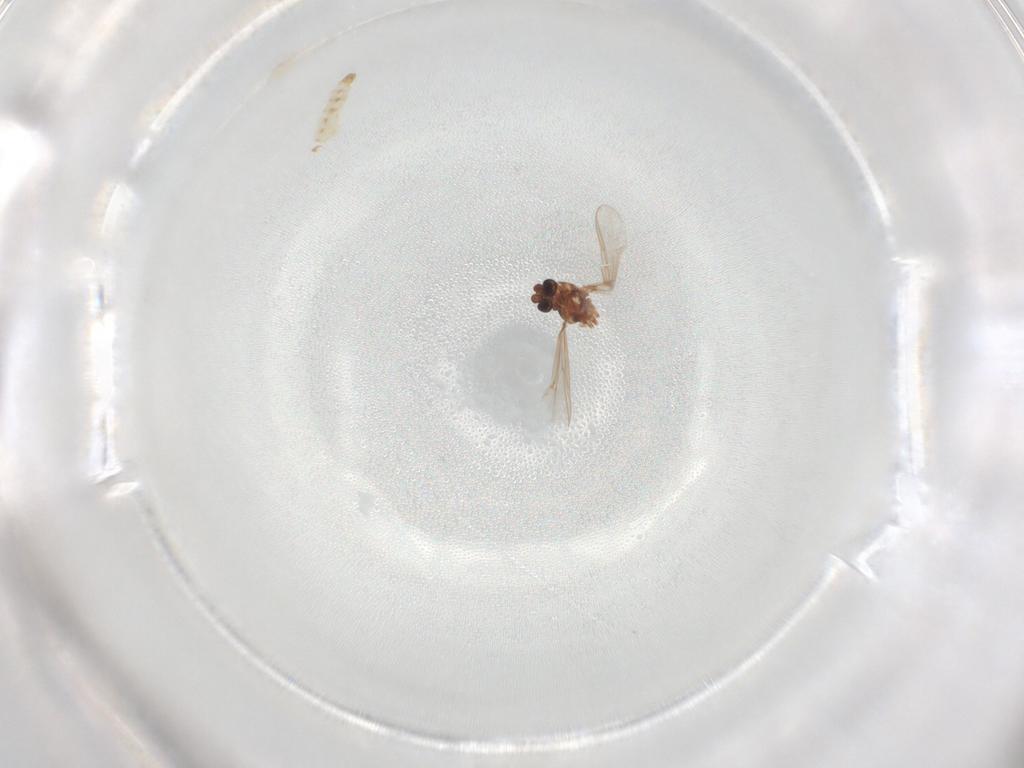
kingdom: Animalia
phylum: Arthropoda
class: Insecta
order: Diptera
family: Chironomidae
